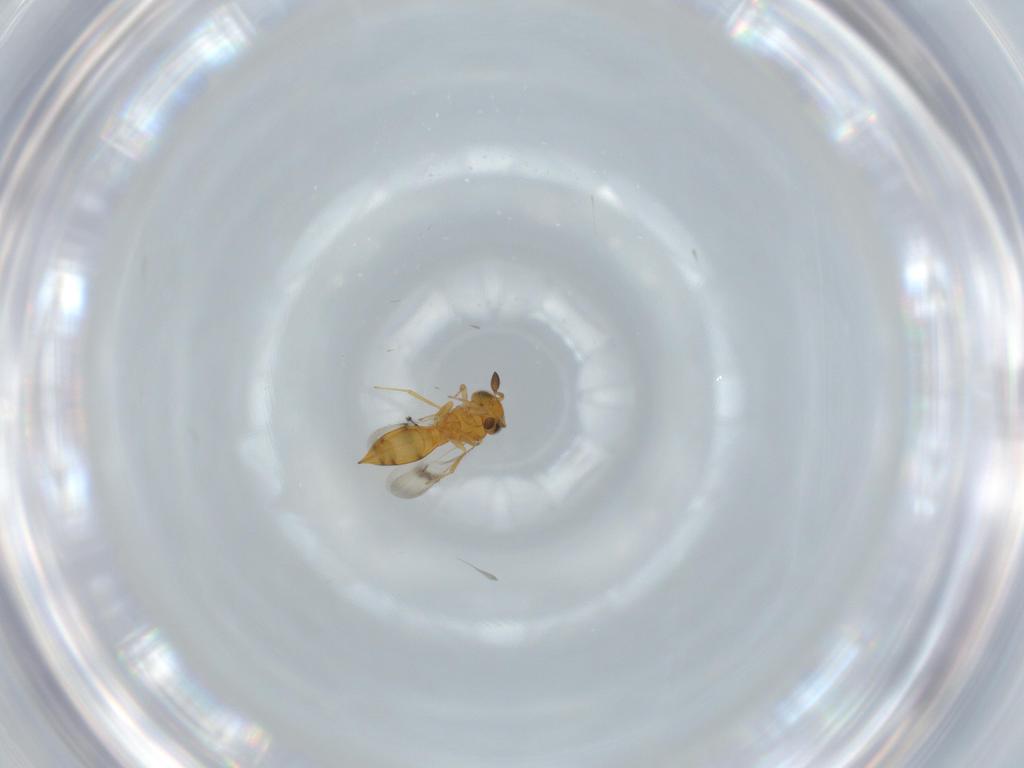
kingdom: Animalia
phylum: Arthropoda
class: Insecta
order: Hymenoptera
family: Scelionidae
